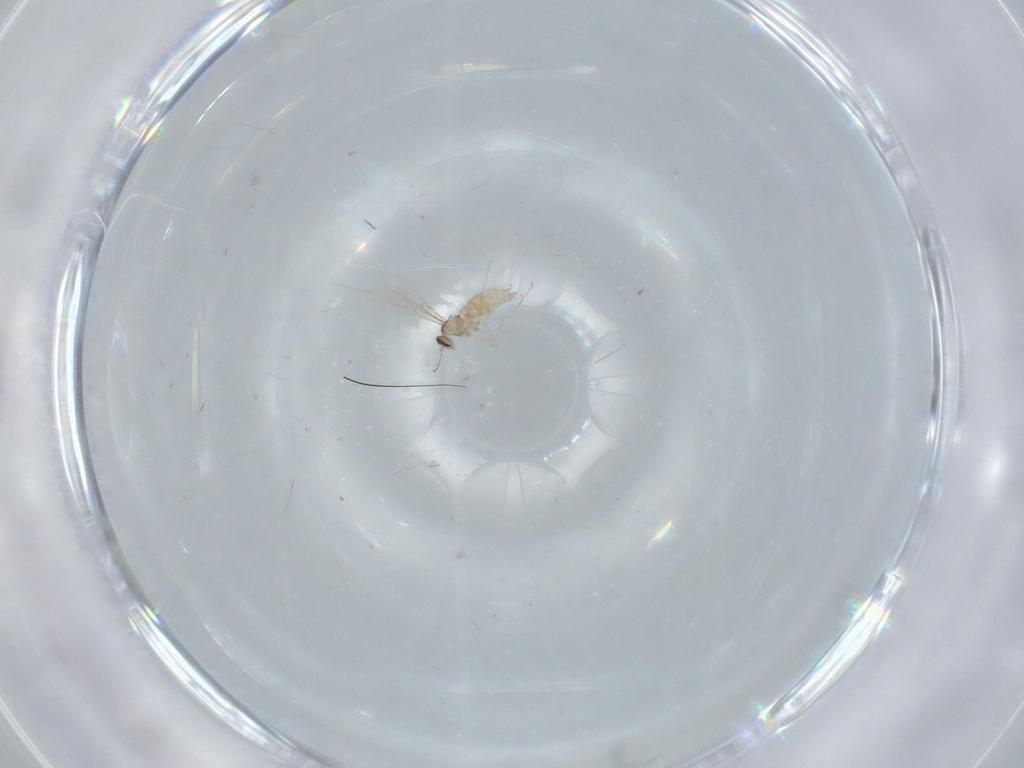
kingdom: Animalia
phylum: Arthropoda
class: Insecta
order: Diptera
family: Cecidomyiidae
